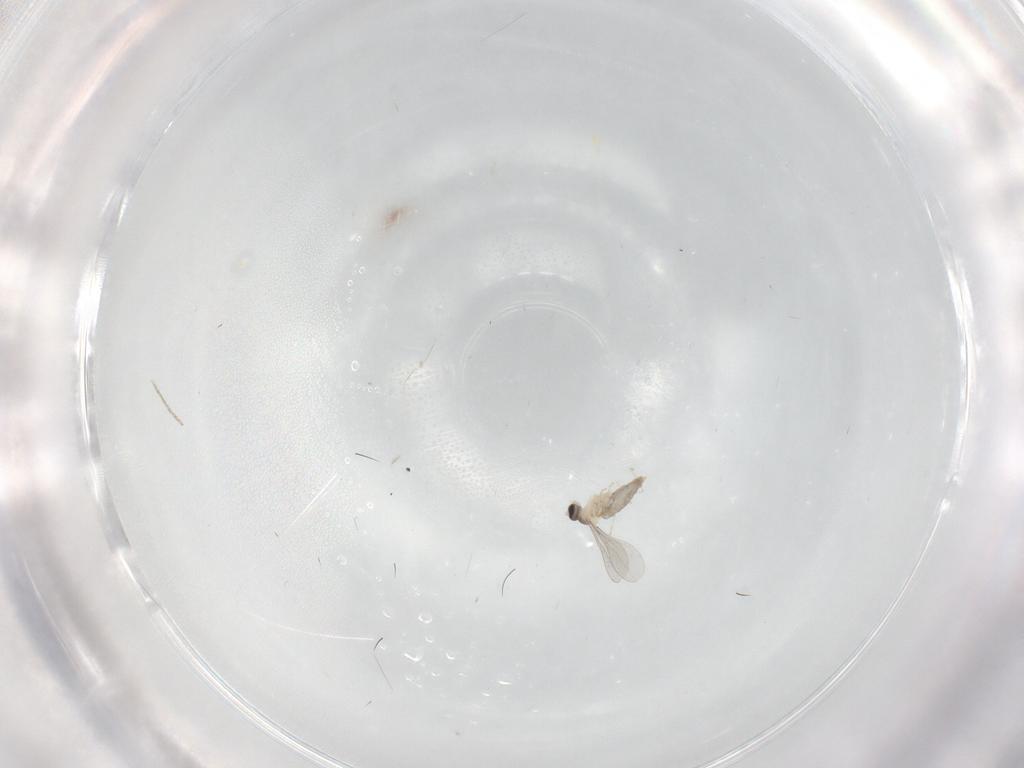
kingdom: Animalia
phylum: Arthropoda
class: Insecta
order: Diptera
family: Cecidomyiidae
